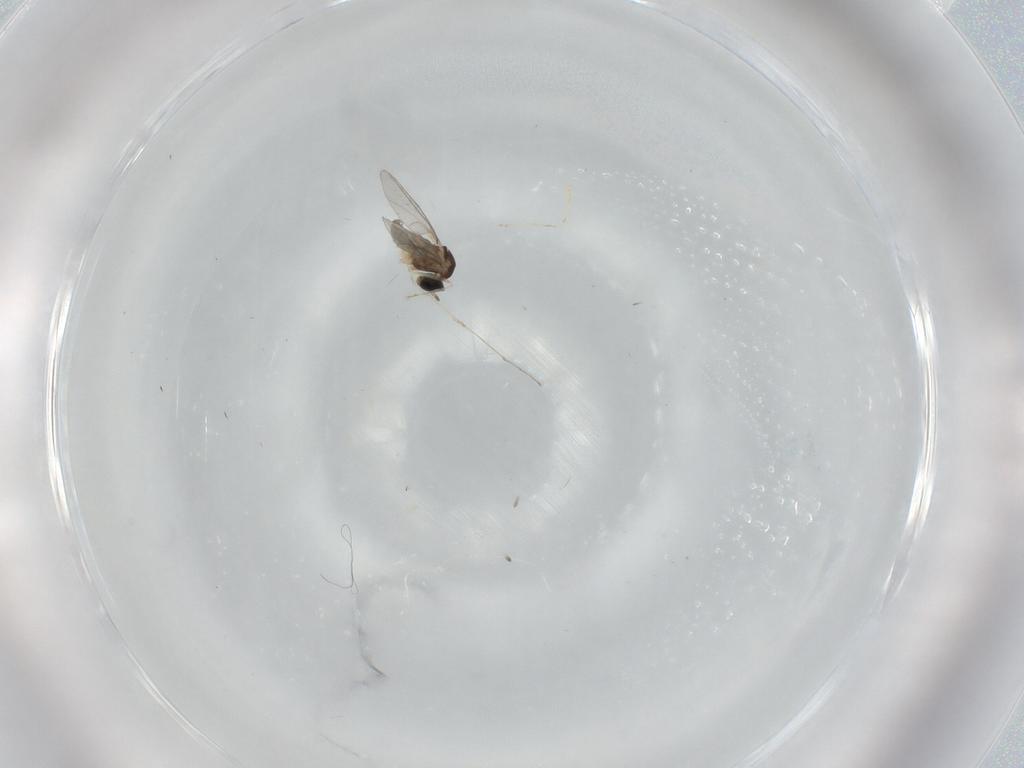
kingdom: Animalia
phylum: Arthropoda
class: Insecta
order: Diptera
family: Cecidomyiidae
